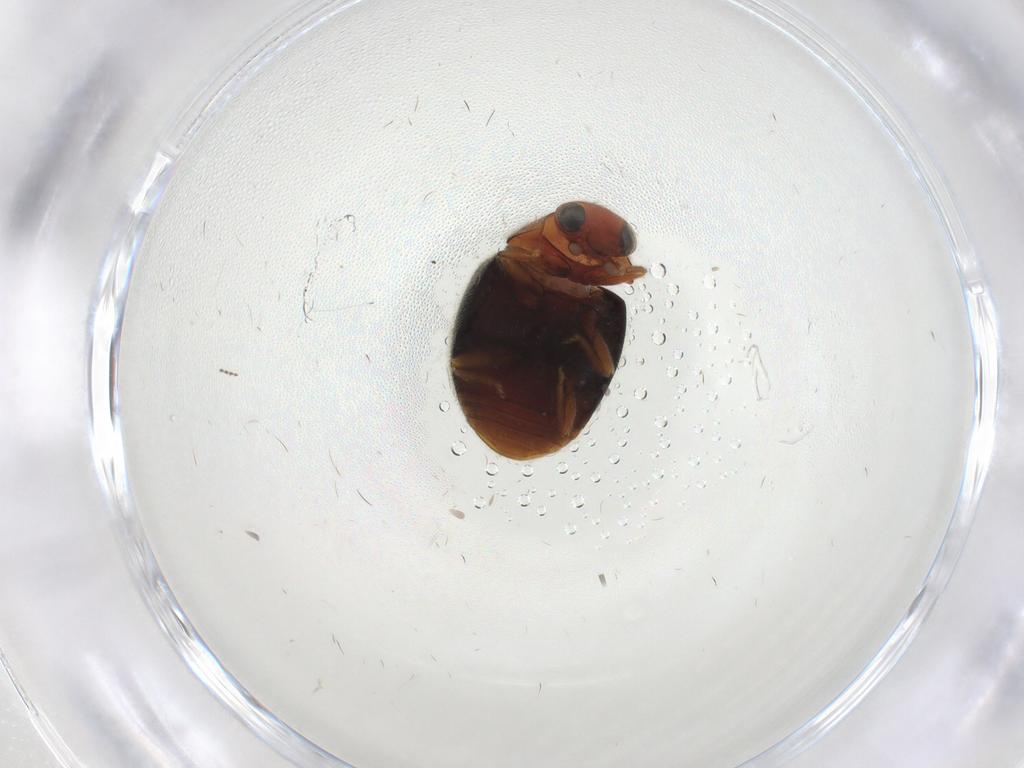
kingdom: Animalia
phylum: Arthropoda
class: Insecta
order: Coleoptera
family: Coccinellidae
